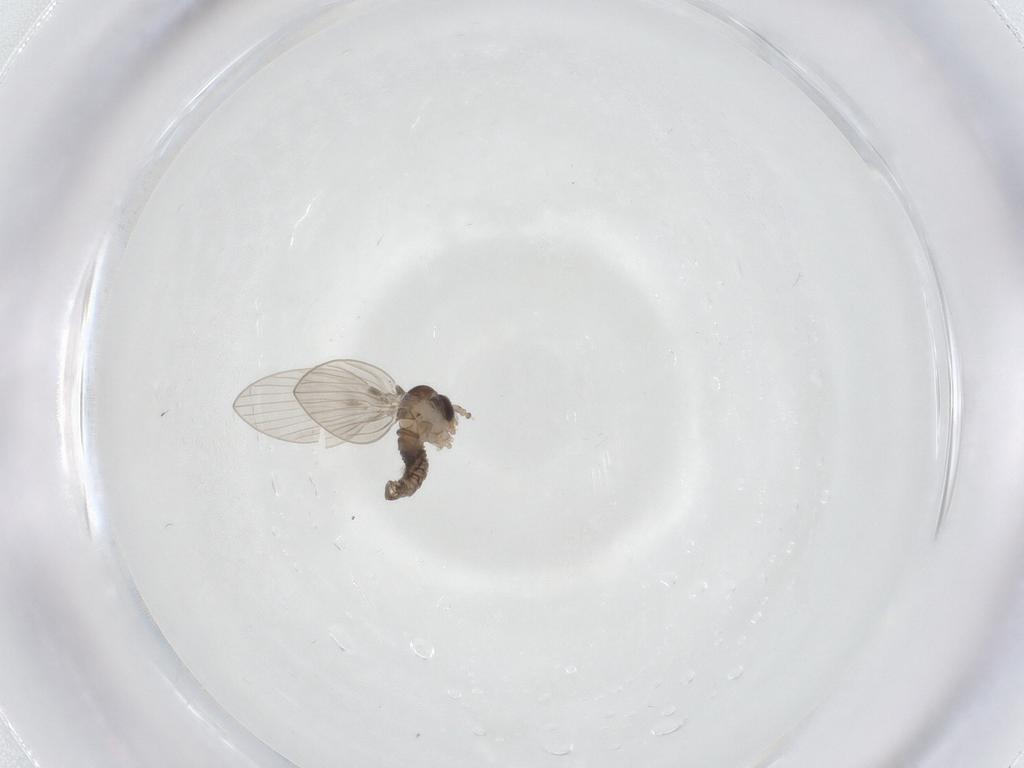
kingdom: Animalia
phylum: Arthropoda
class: Insecta
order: Diptera
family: Psychodidae
